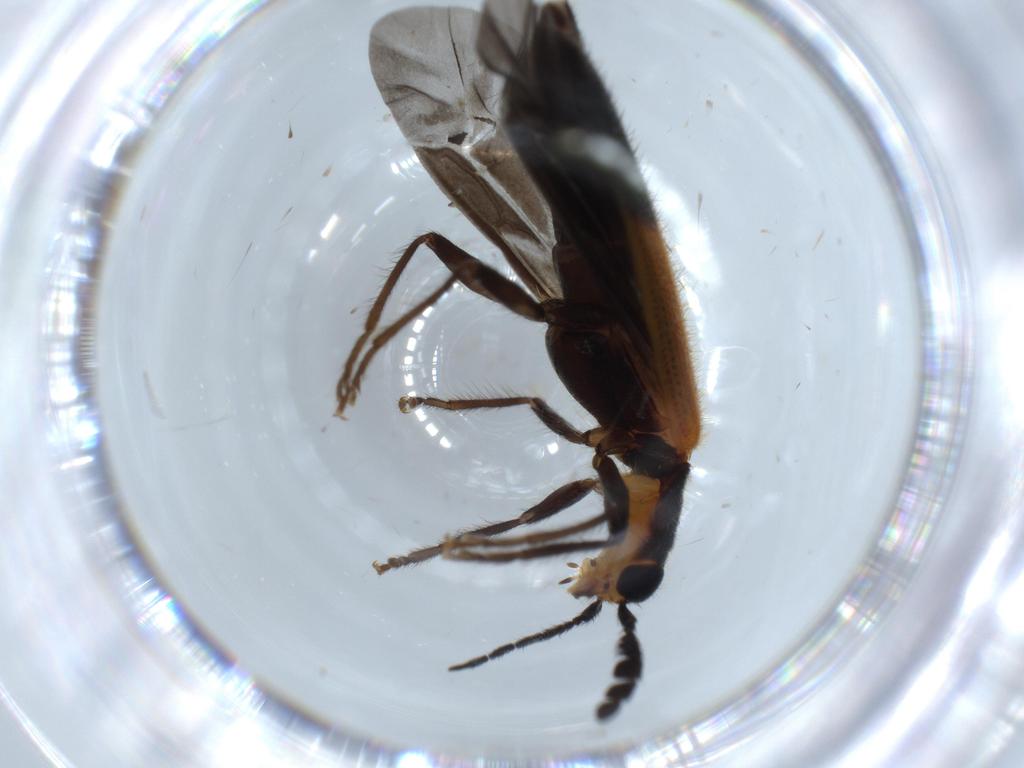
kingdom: Animalia
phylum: Arthropoda
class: Insecta
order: Coleoptera
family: Cleridae
